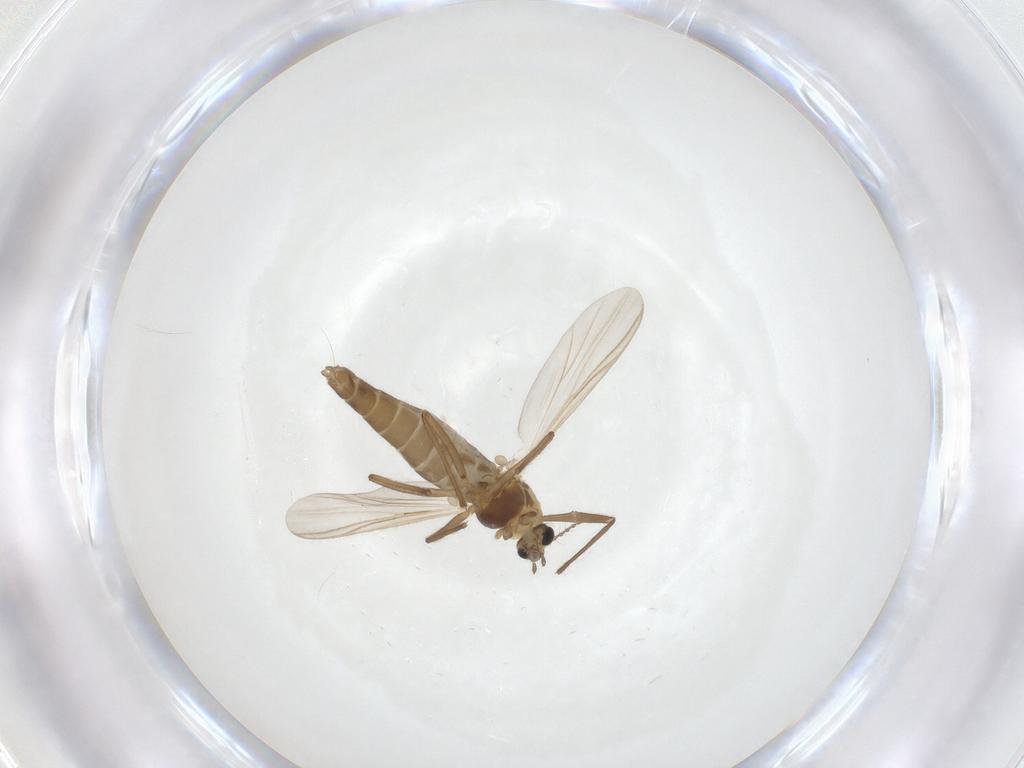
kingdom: Animalia
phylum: Arthropoda
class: Insecta
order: Diptera
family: Chironomidae
